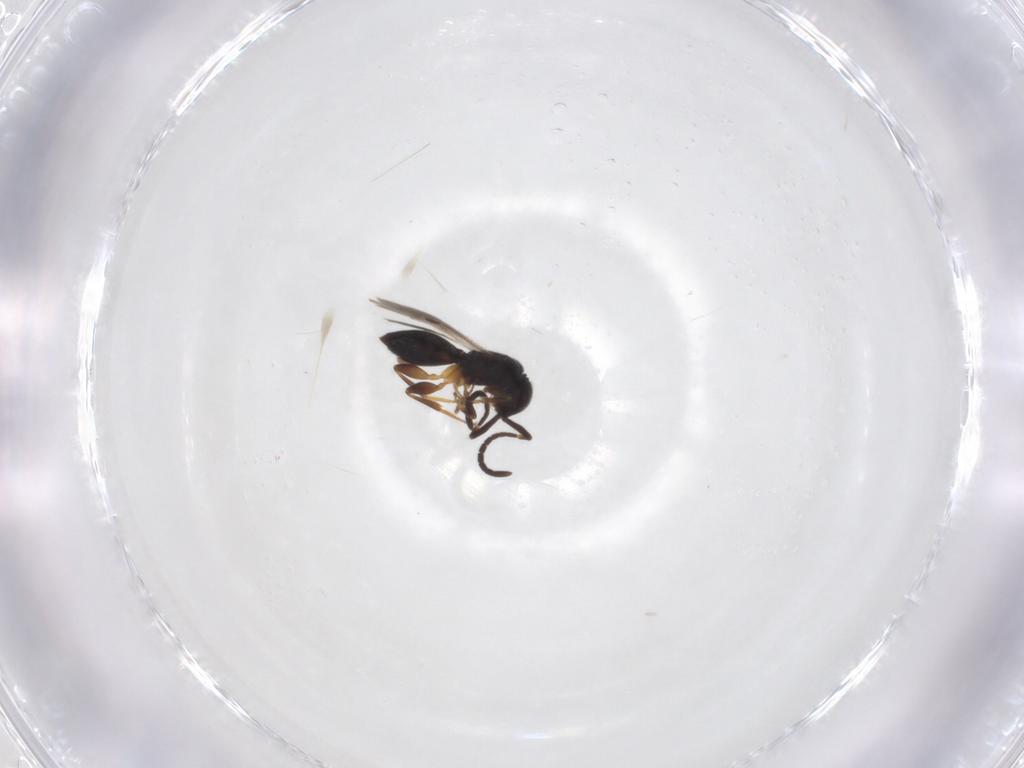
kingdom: Animalia
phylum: Arthropoda
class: Insecta
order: Hymenoptera
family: Megaspilidae
